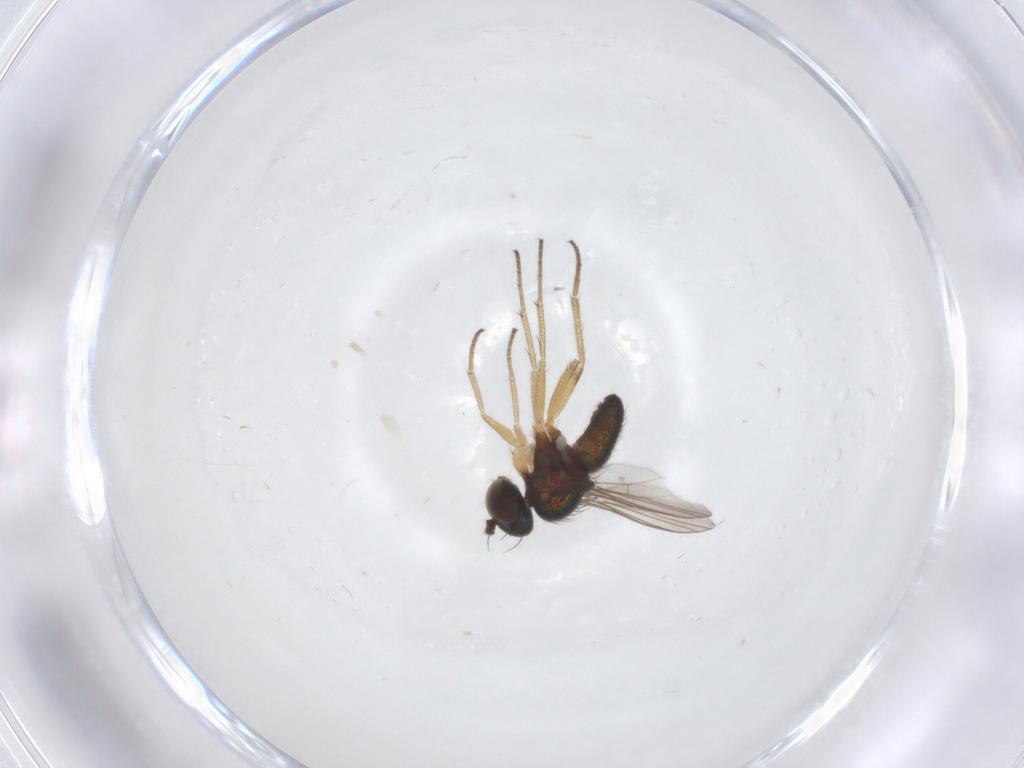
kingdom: Animalia
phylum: Arthropoda
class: Insecta
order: Diptera
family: Dolichopodidae
